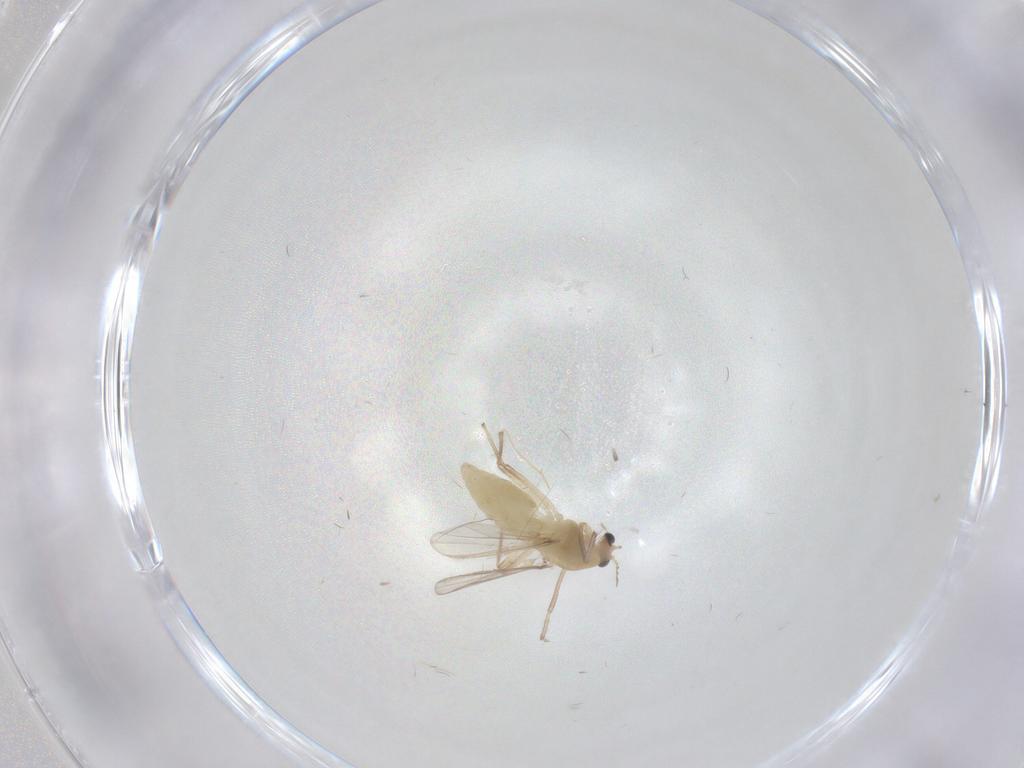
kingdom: Animalia
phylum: Arthropoda
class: Insecta
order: Diptera
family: Chironomidae
